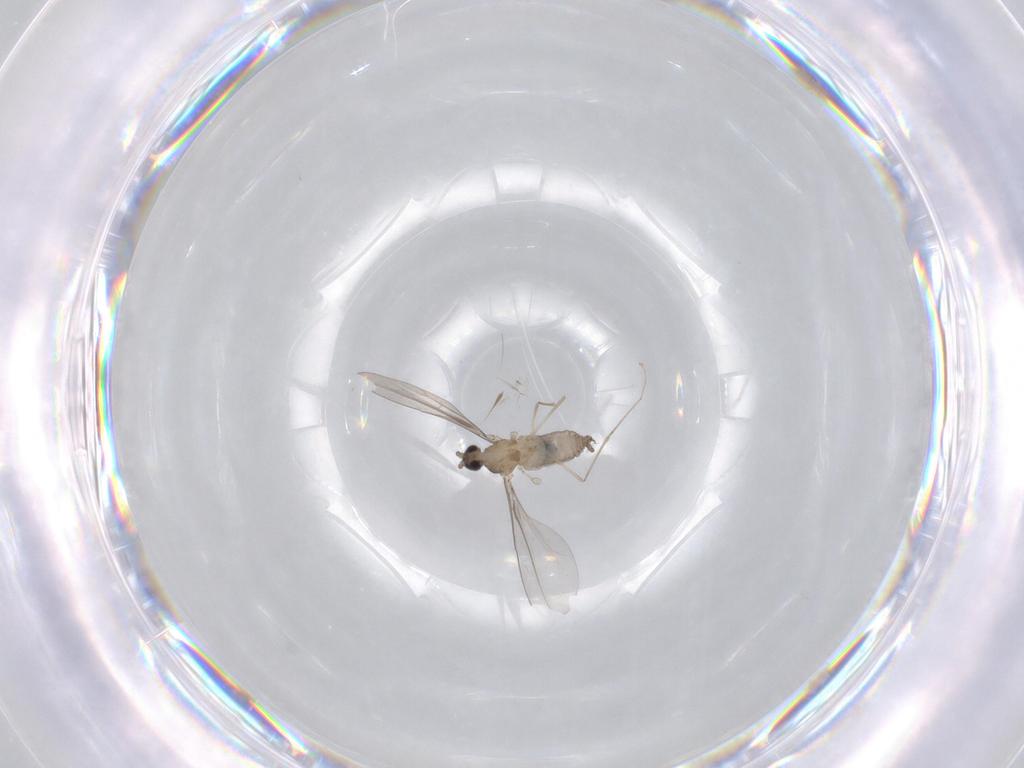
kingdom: Animalia
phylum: Arthropoda
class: Insecta
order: Diptera
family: Cecidomyiidae
